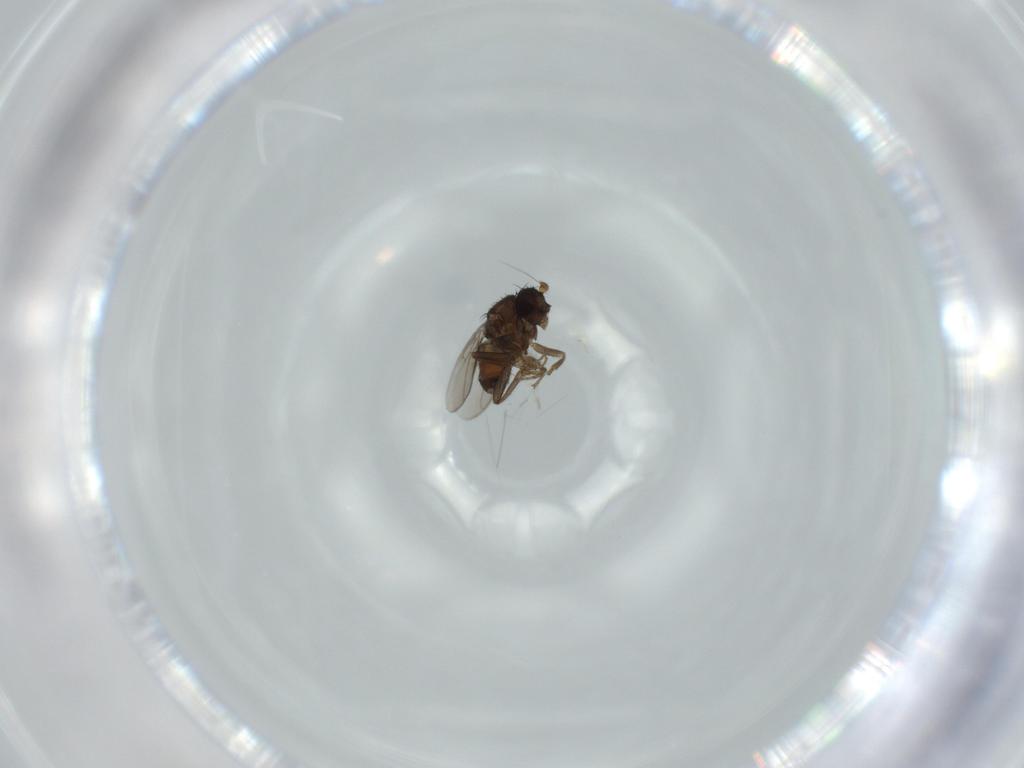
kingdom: Animalia
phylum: Arthropoda
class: Insecta
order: Diptera
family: Sphaeroceridae
